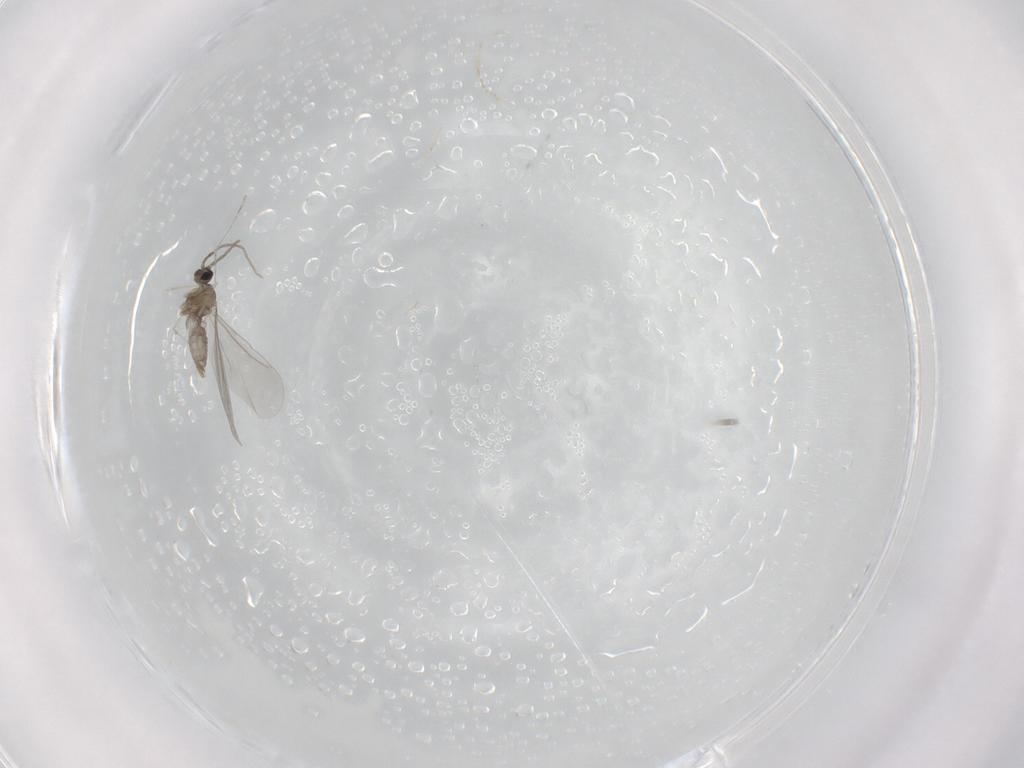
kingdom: Animalia
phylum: Arthropoda
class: Insecta
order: Diptera
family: Cecidomyiidae
